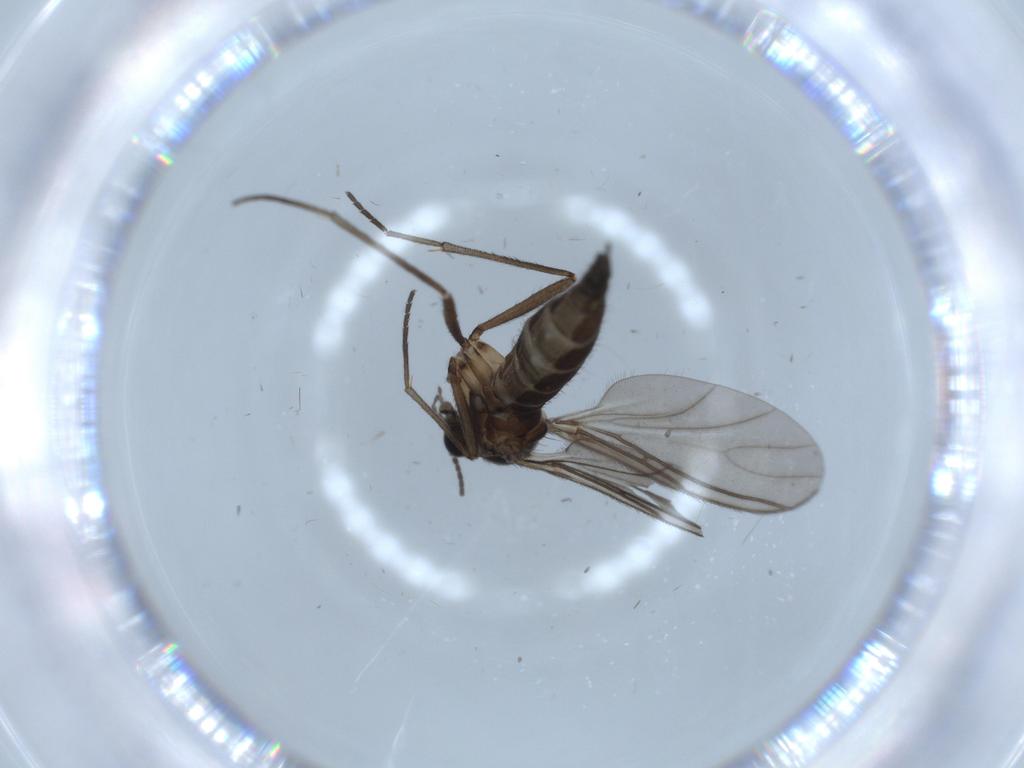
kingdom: Animalia
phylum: Arthropoda
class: Insecta
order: Diptera
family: Sciaridae
